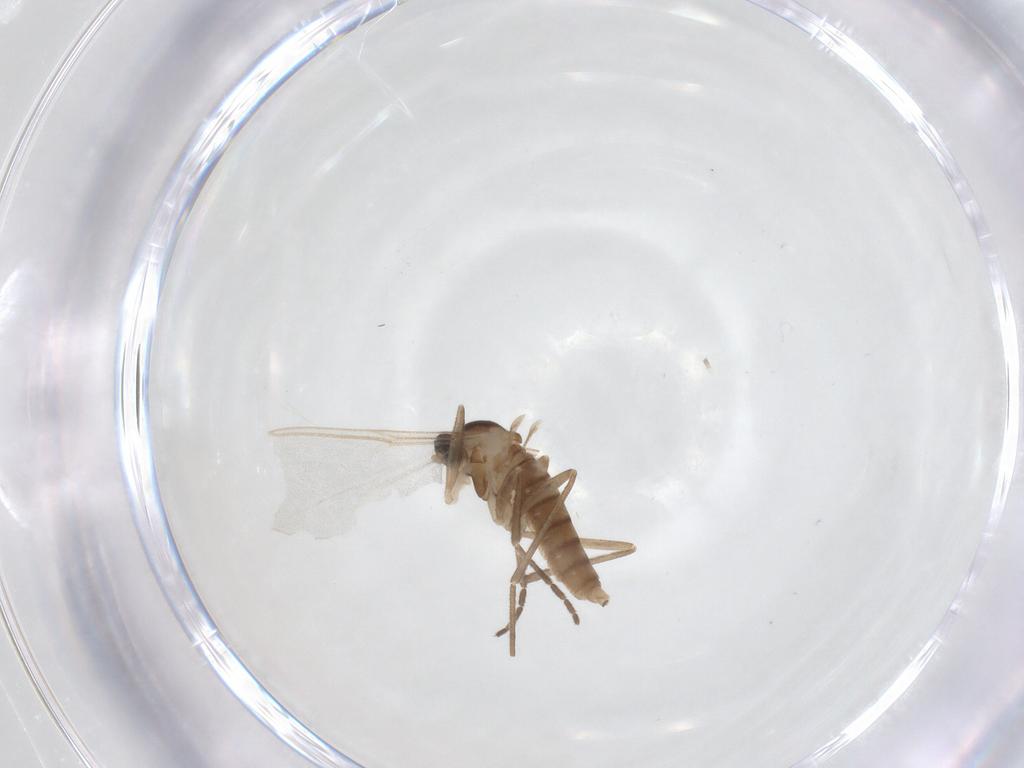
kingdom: Animalia
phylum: Arthropoda
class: Insecta
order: Diptera
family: Cecidomyiidae
